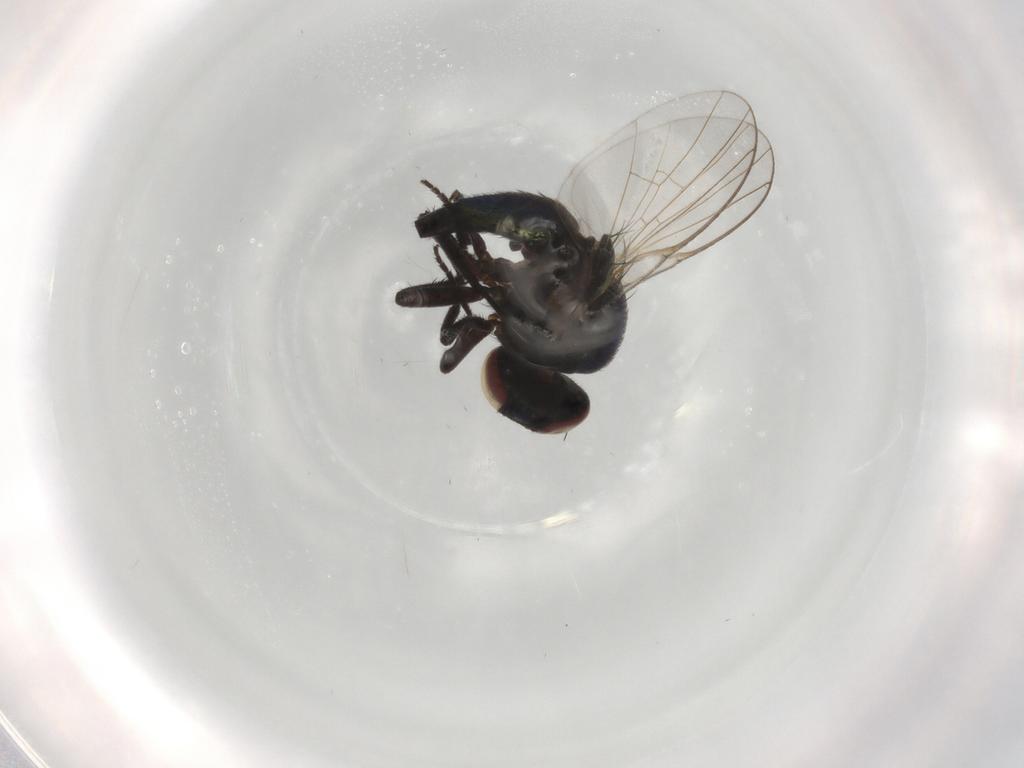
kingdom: Animalia
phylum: Arthropoda
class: Insecta
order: Diptera
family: Agromyzidae
